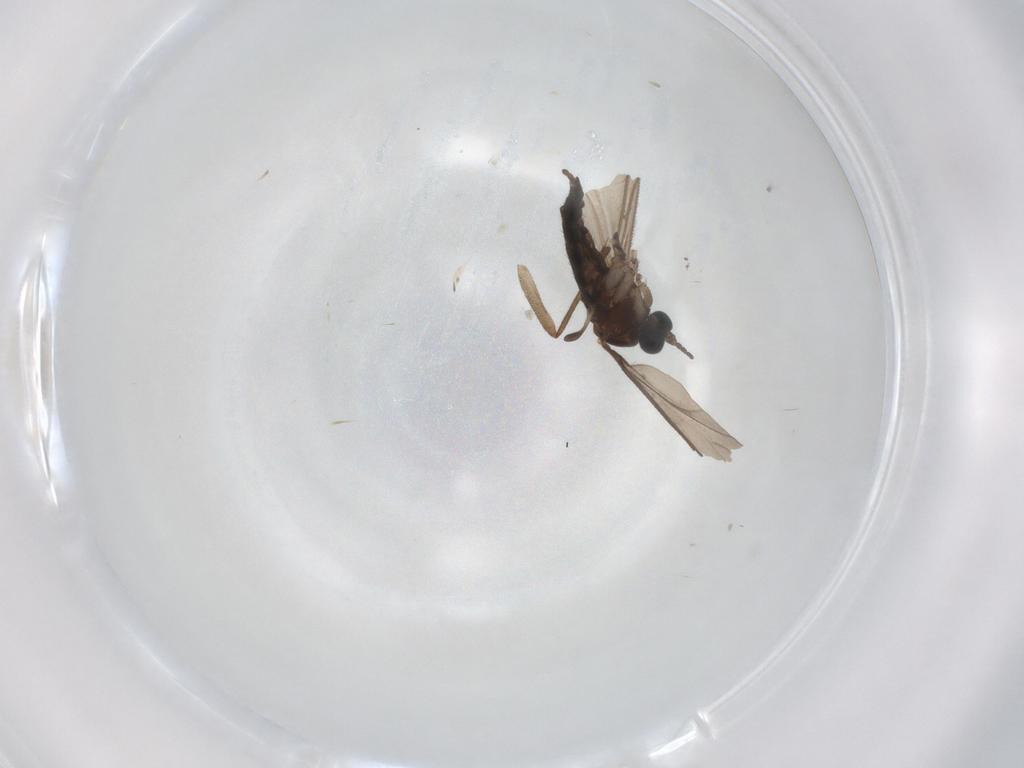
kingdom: Animalia
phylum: Arthropoda
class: Insecta
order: Diptera
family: Sciaridae
